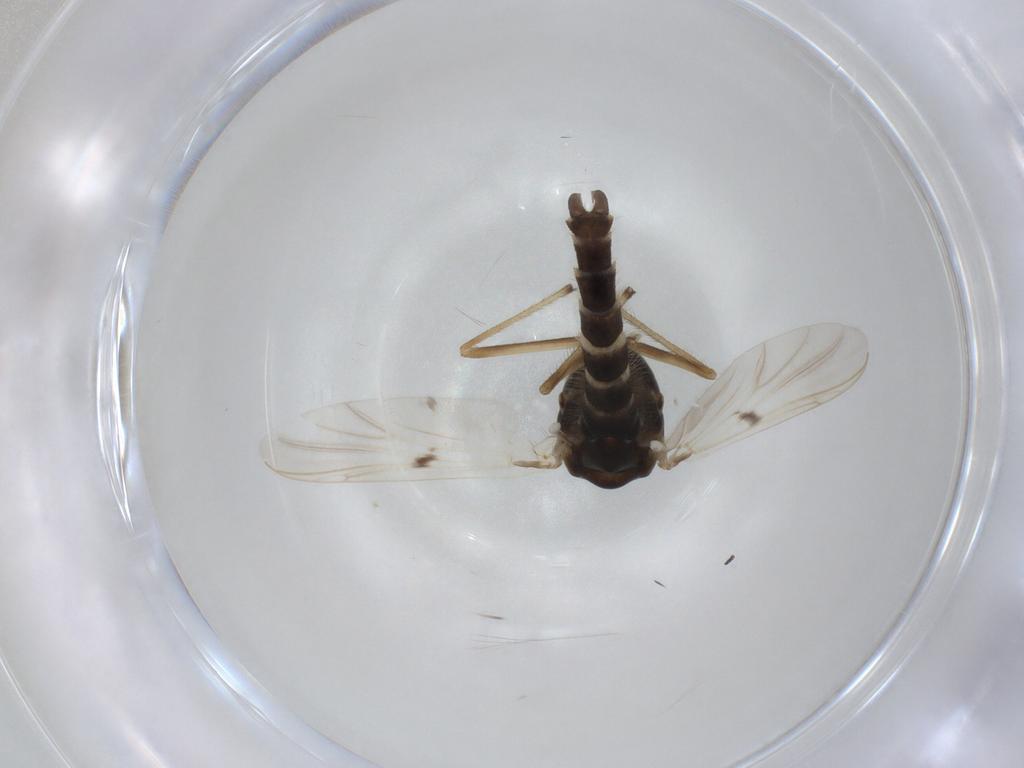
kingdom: Animalia
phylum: Arthropoda
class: Insecta
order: Diptera
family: Chironomidae
